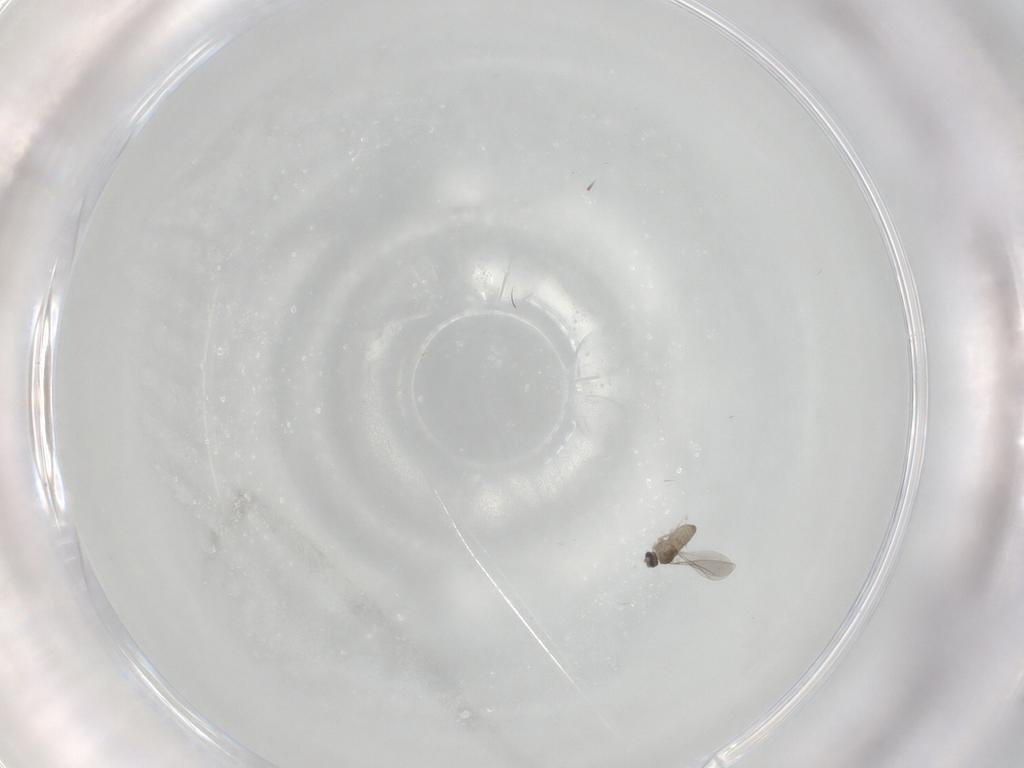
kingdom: Animalia
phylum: Arthropoda
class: Insecta
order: Diptera
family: Cecidomyiidae
